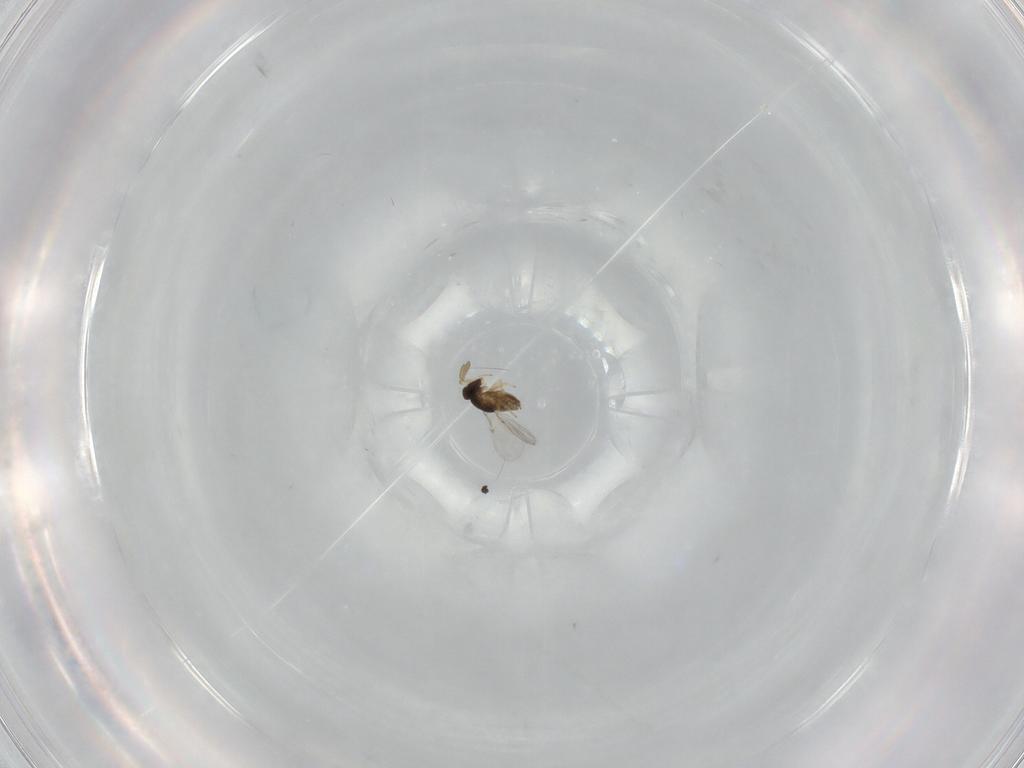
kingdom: Animalia
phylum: Arthropoda
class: Insecta
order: Hymenoptera
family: Encyrtidae
